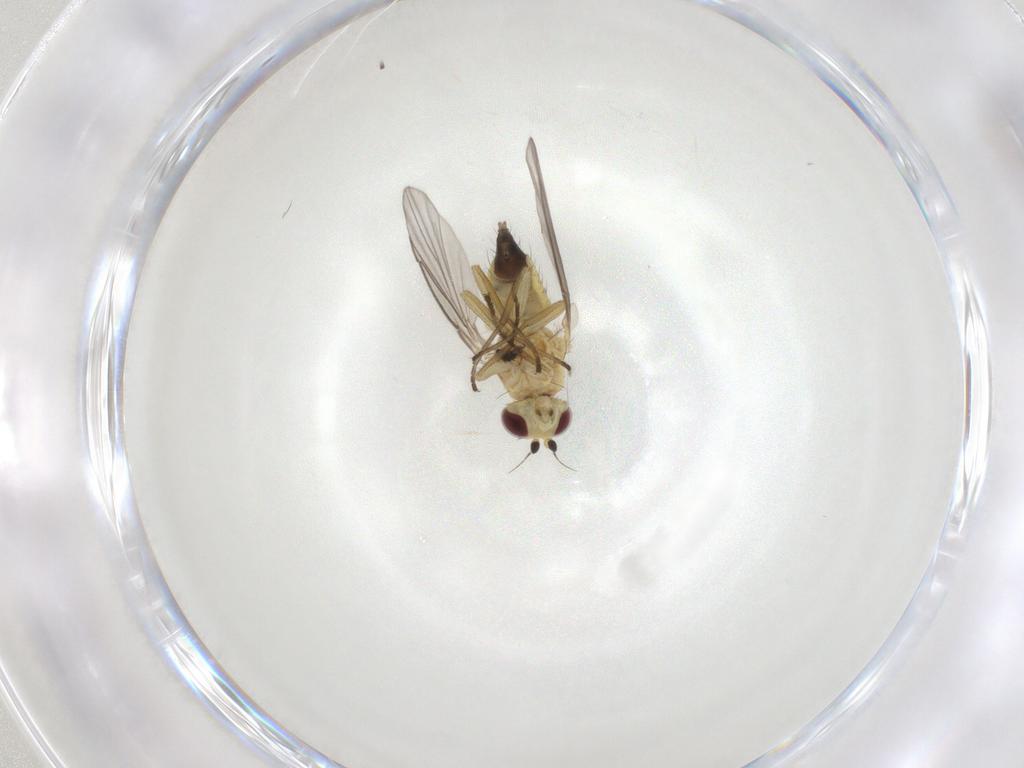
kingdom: Animalia
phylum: Arthropoda
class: Insecta
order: Diptera
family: Agromyzidae
